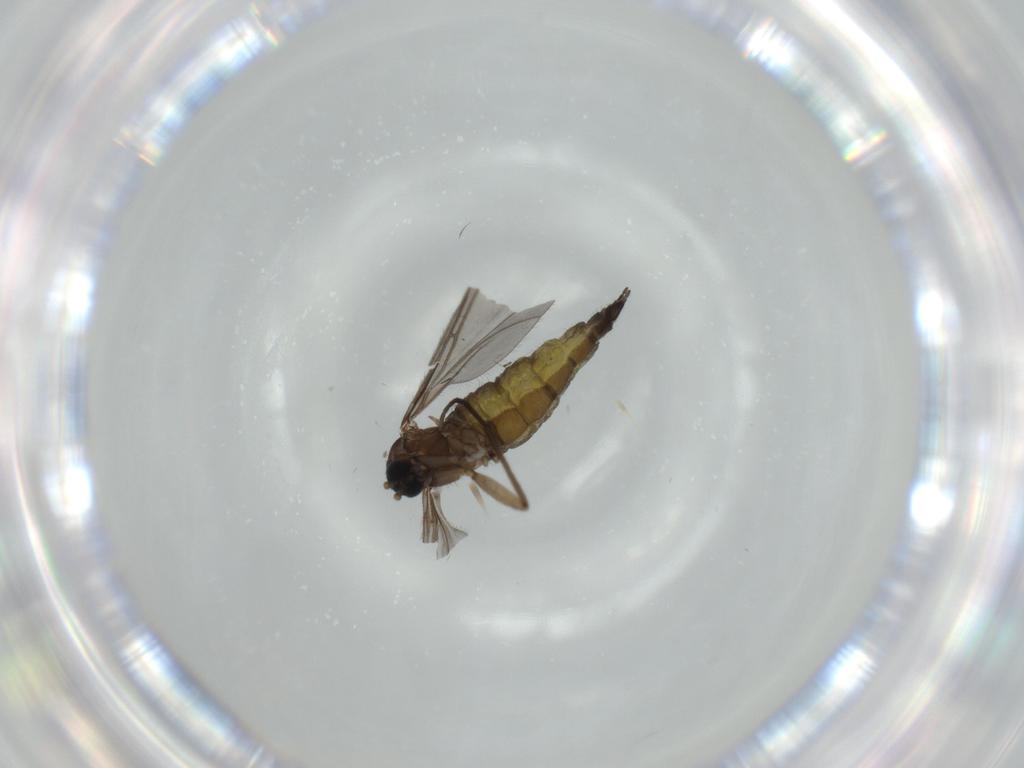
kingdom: Animalia
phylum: Arthropoda
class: Insecta
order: Diptera
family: Sciaridae
